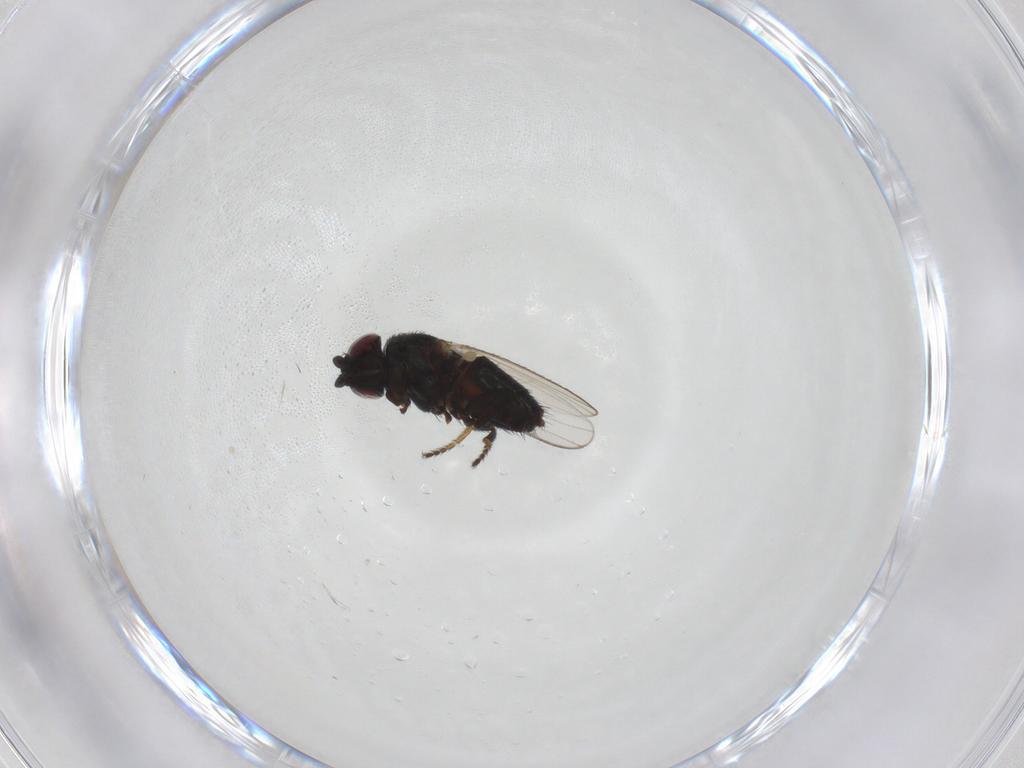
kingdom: Animalia
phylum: Arthropoda
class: Insecta
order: Diptera
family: Milichiidae
